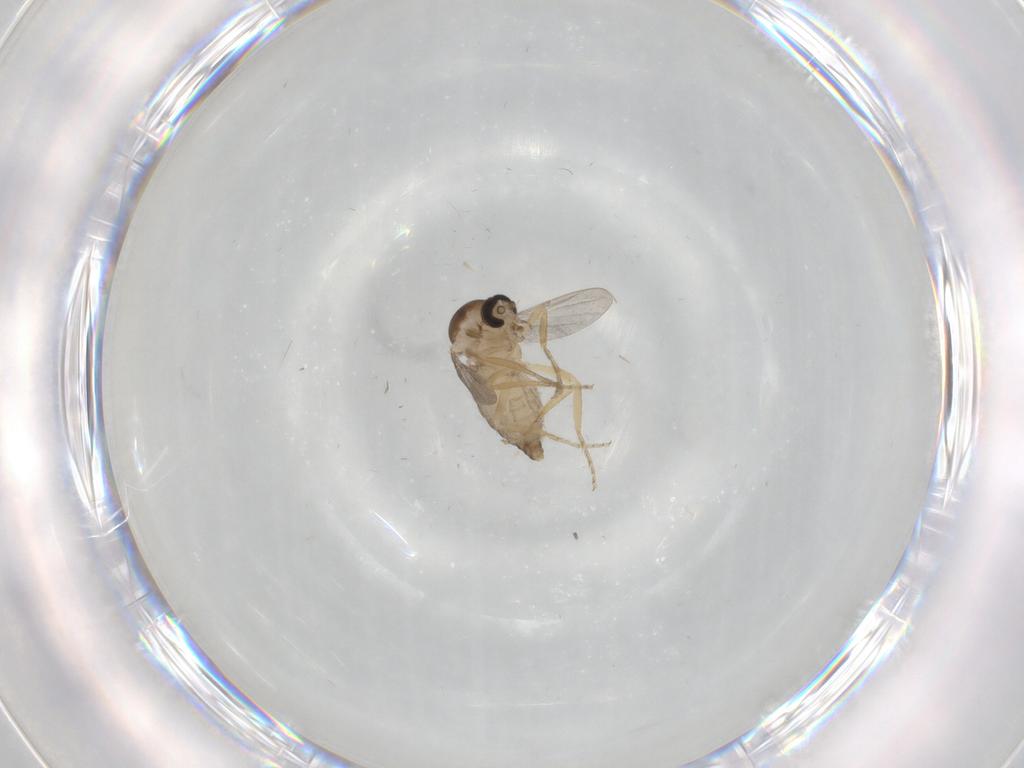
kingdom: Animalia
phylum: Arthropoda
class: Insecta
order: Diptera
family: Ceratopogonidae
